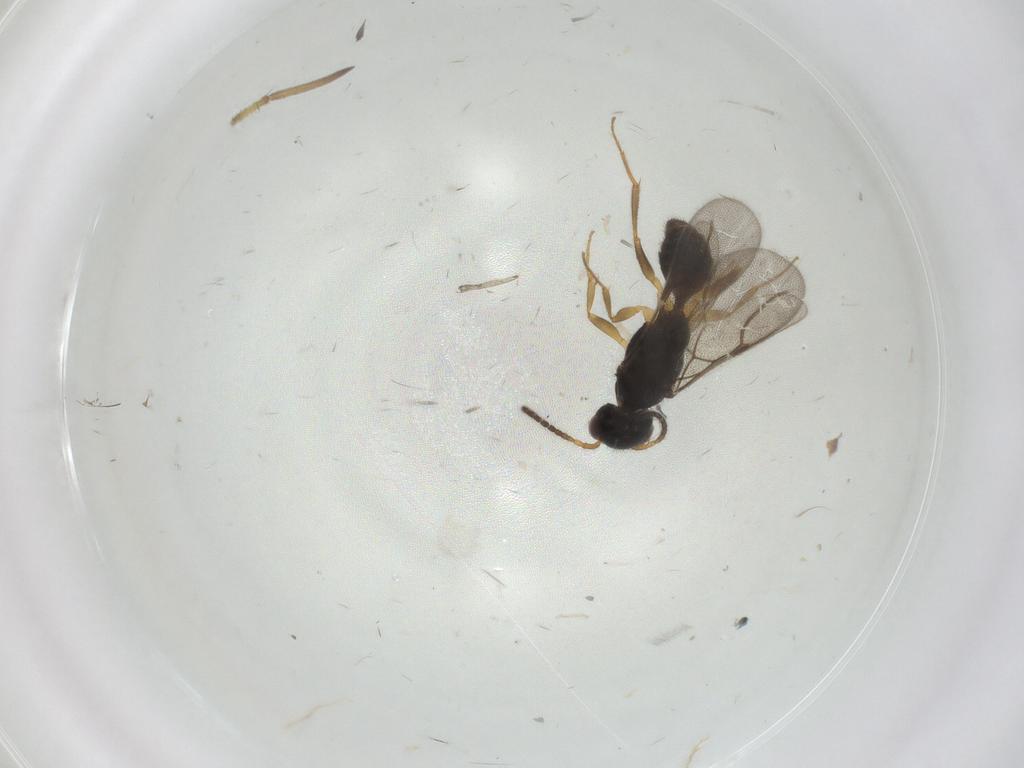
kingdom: Animalia
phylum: Arthropoda
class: Insecta
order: Hymenoptera
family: Bethylidae
